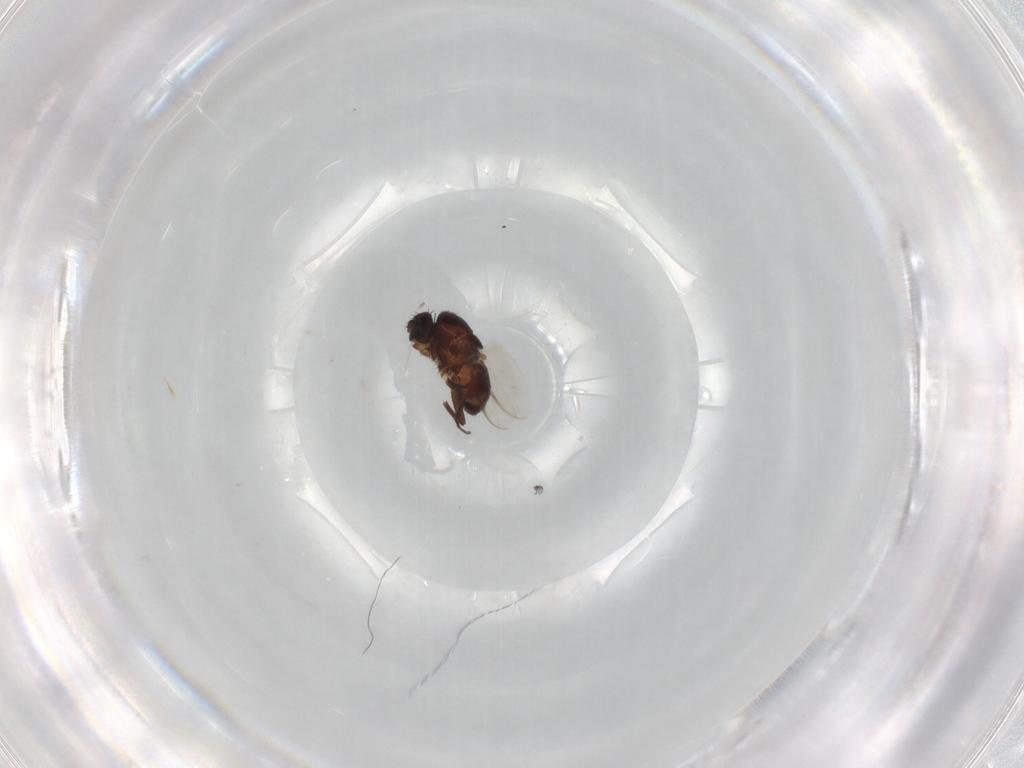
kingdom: Animalia
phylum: Arthropoda
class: Insecta
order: Diptera
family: Sphaeroceridae
